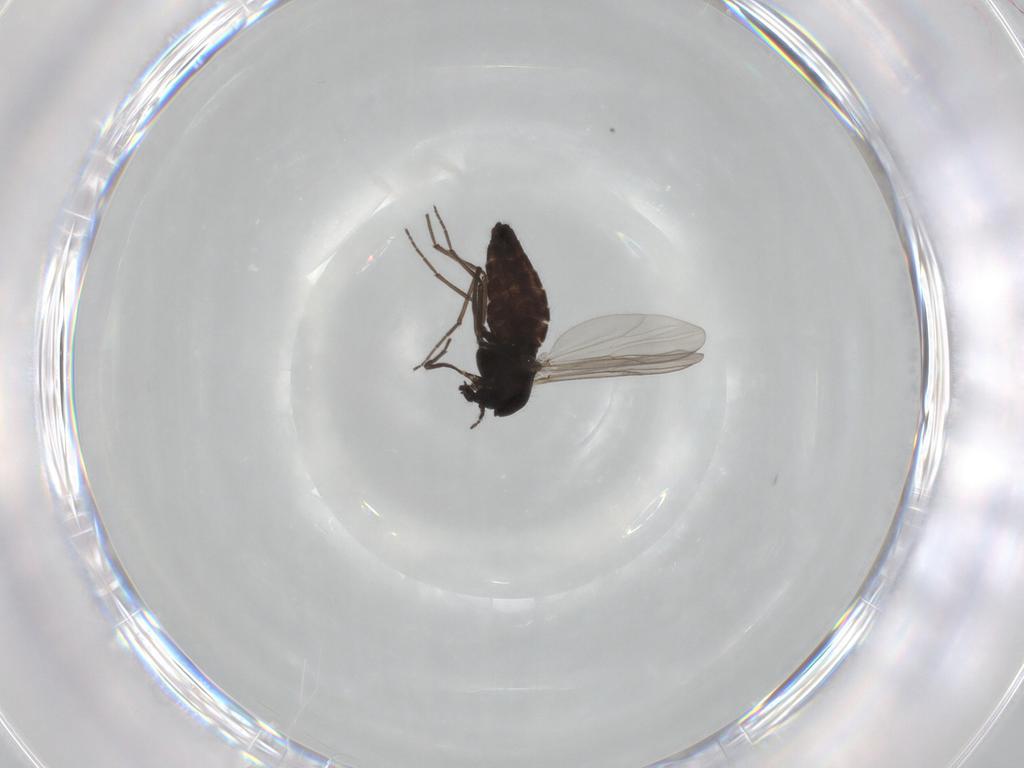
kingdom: Animalia
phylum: Arthropoda
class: Insecta
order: Diptera
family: Chironomidae
